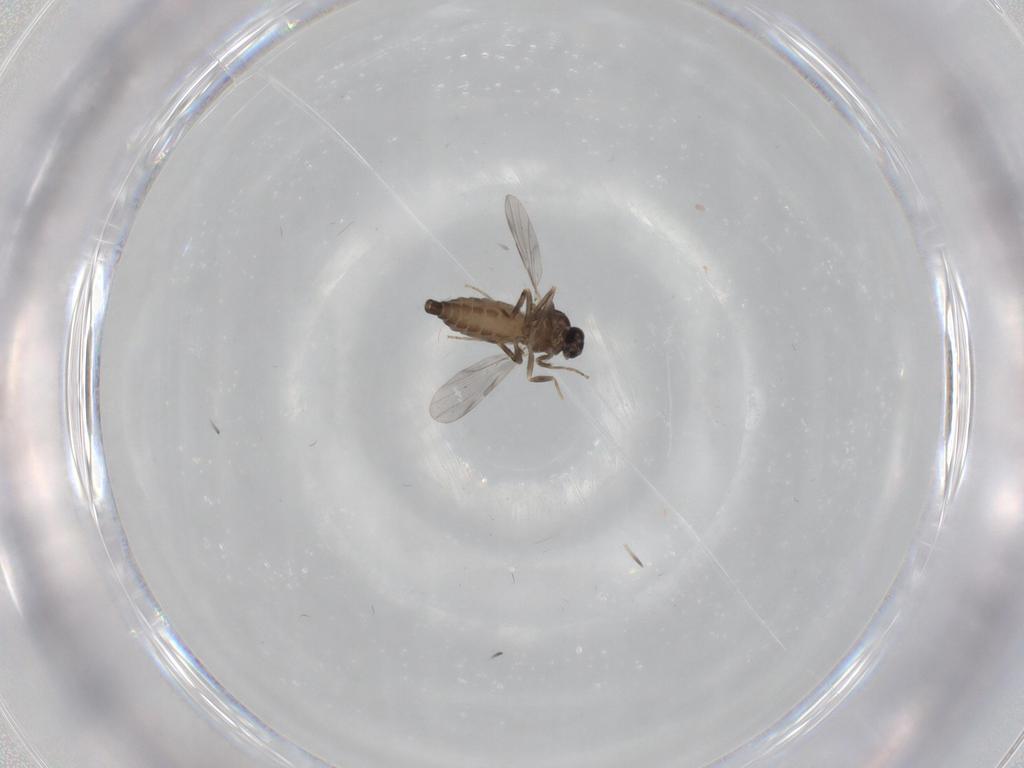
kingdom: Animalia
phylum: Arthropoda
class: Insecta
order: Diptera
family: Ceratopogonidae
